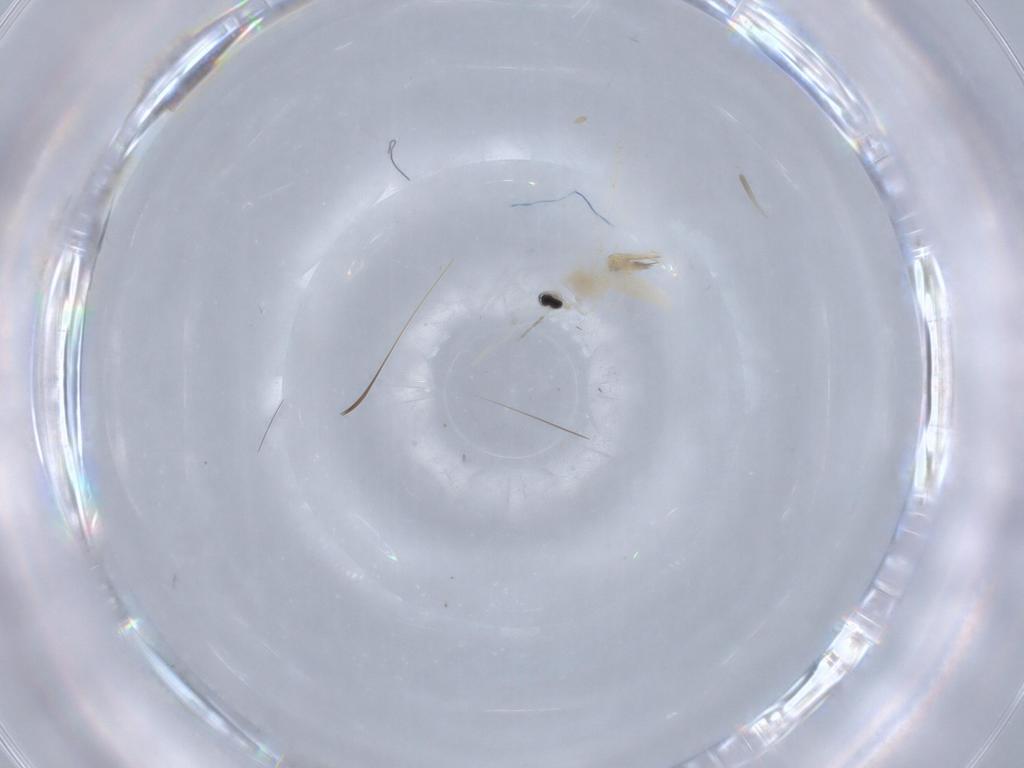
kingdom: Animalia
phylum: Arthropoda
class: Insecta
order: Diptera
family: Cecidomyiidae
